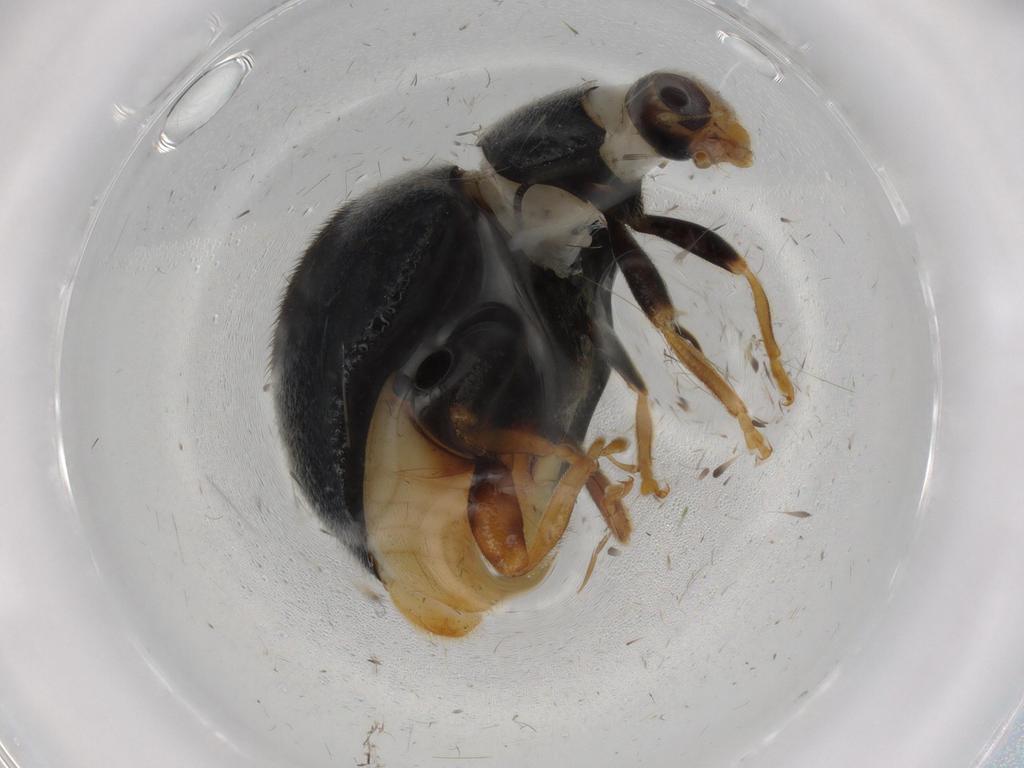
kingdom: Animalia
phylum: Arthropoda
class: Insecta
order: Coleoptera
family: Coccinellidae
